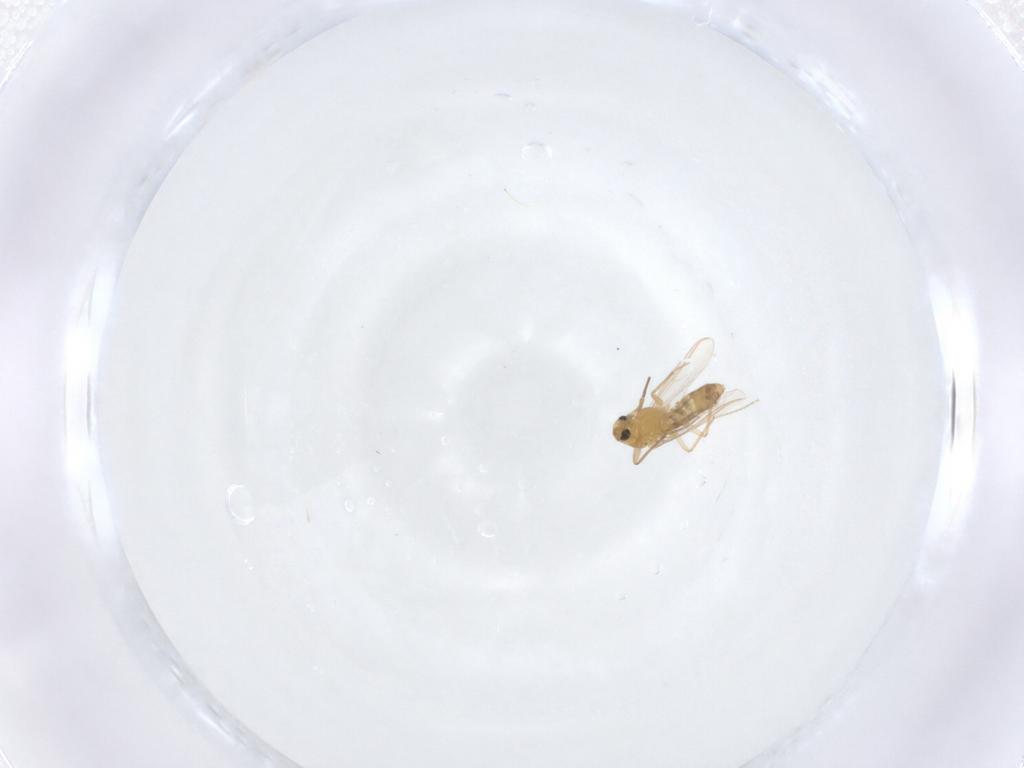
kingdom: Animalia
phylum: Arthropoda
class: Insecta
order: Diptera
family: Chironomidae
